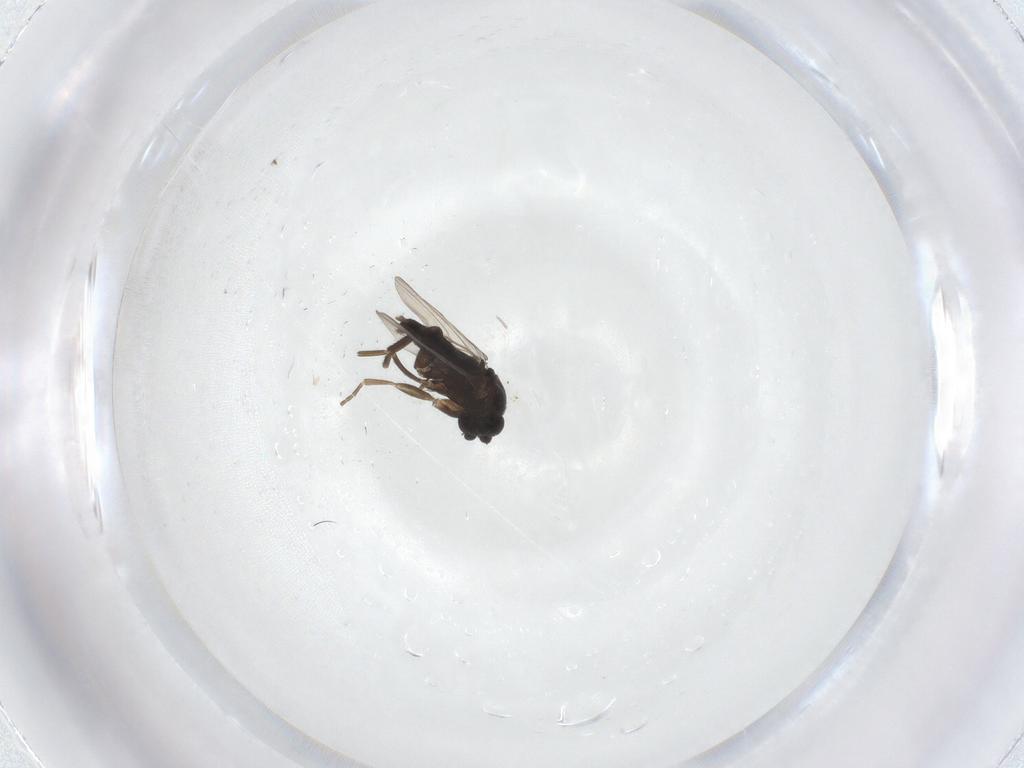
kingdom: Animalia
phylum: Arthropoda
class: Insecta
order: Diptera
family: Phoridae
